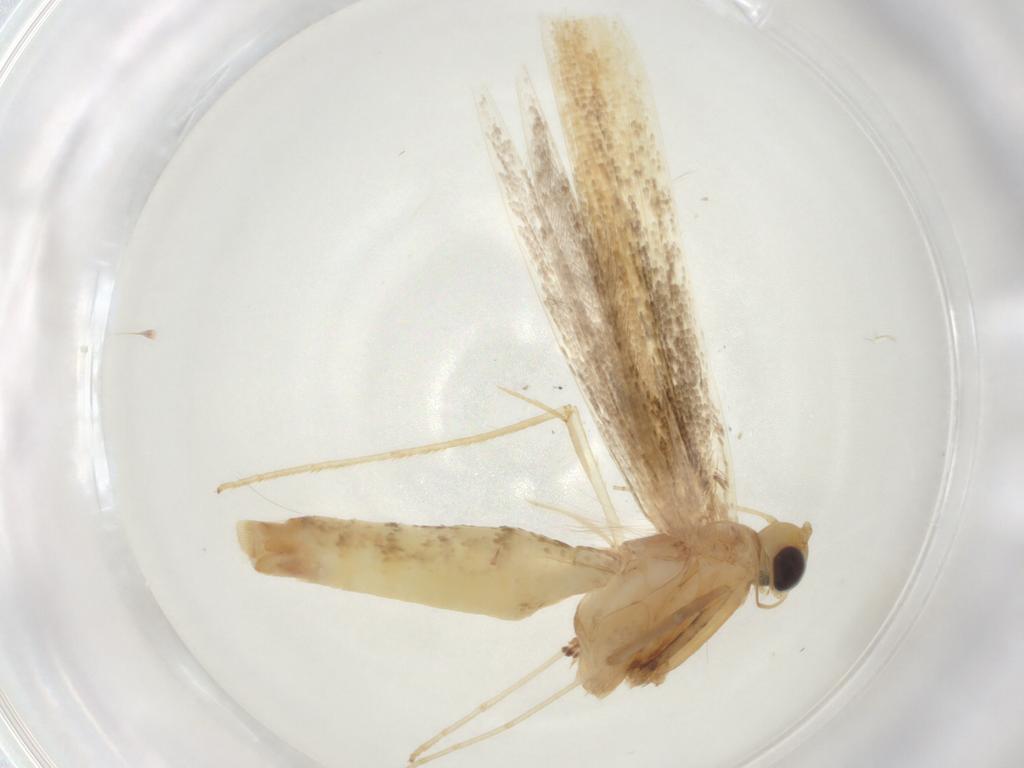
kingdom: Animalia
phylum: Arthropoda
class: Insecta
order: Lepidoptera
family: Gracillariidae
